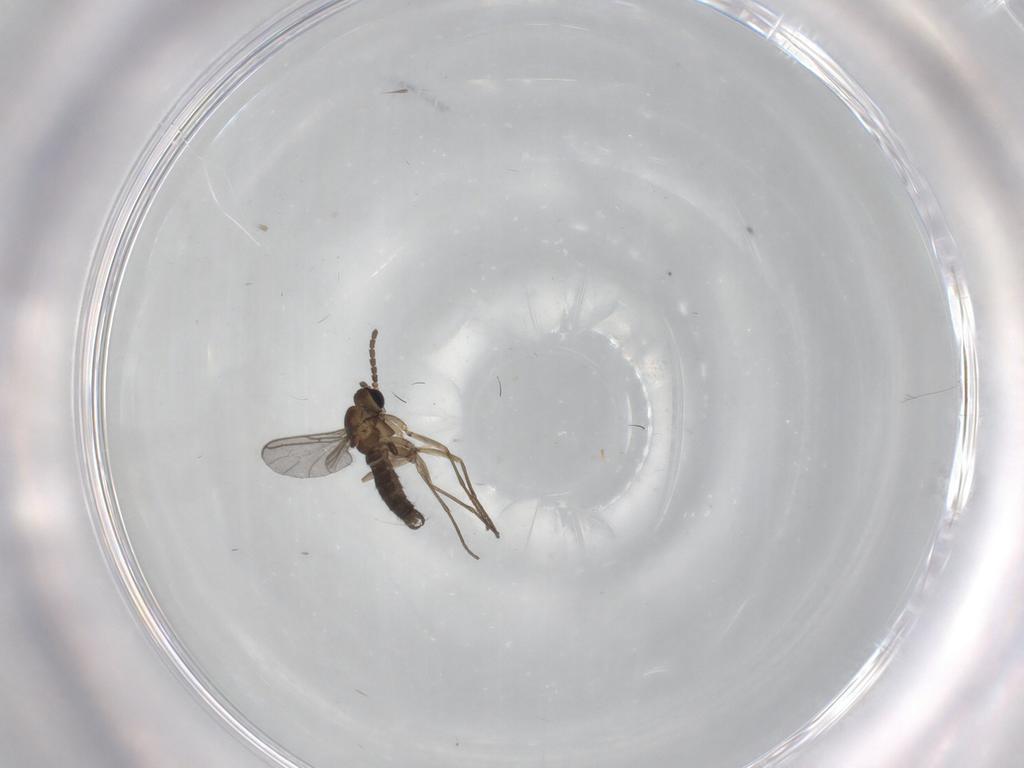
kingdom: Animalia
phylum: Arthropoda
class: Insecta
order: Diptera
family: Sciaridae
